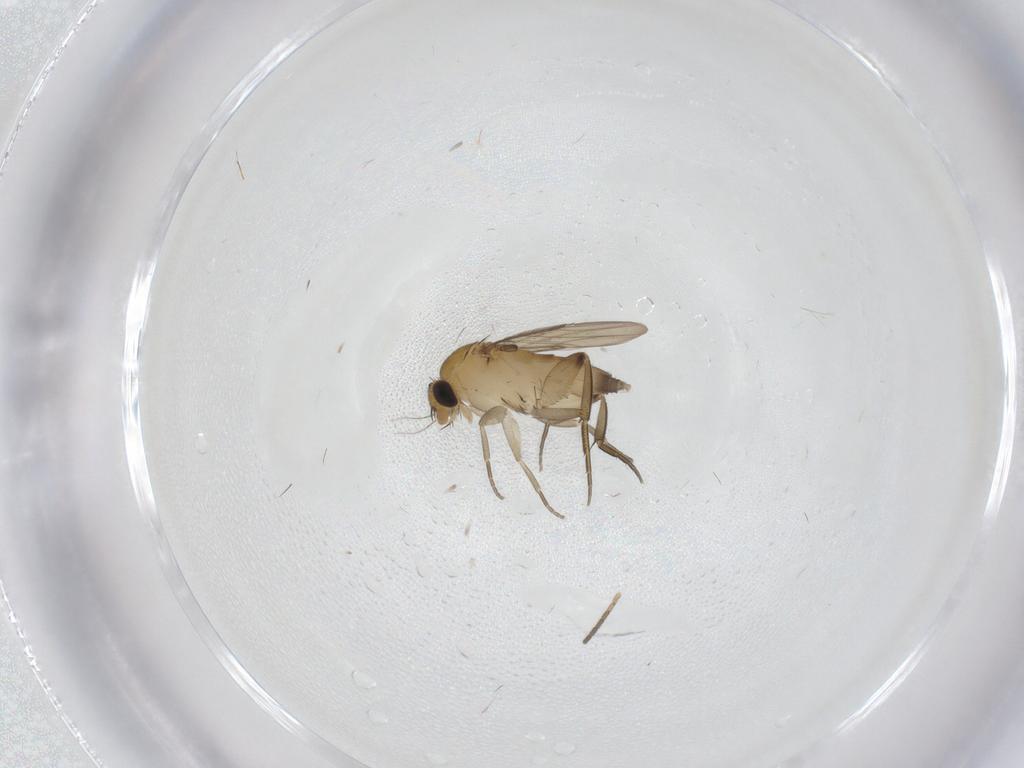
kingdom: Animalia
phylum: Arthropoda
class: Insecta
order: Diptera
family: Phoridae
